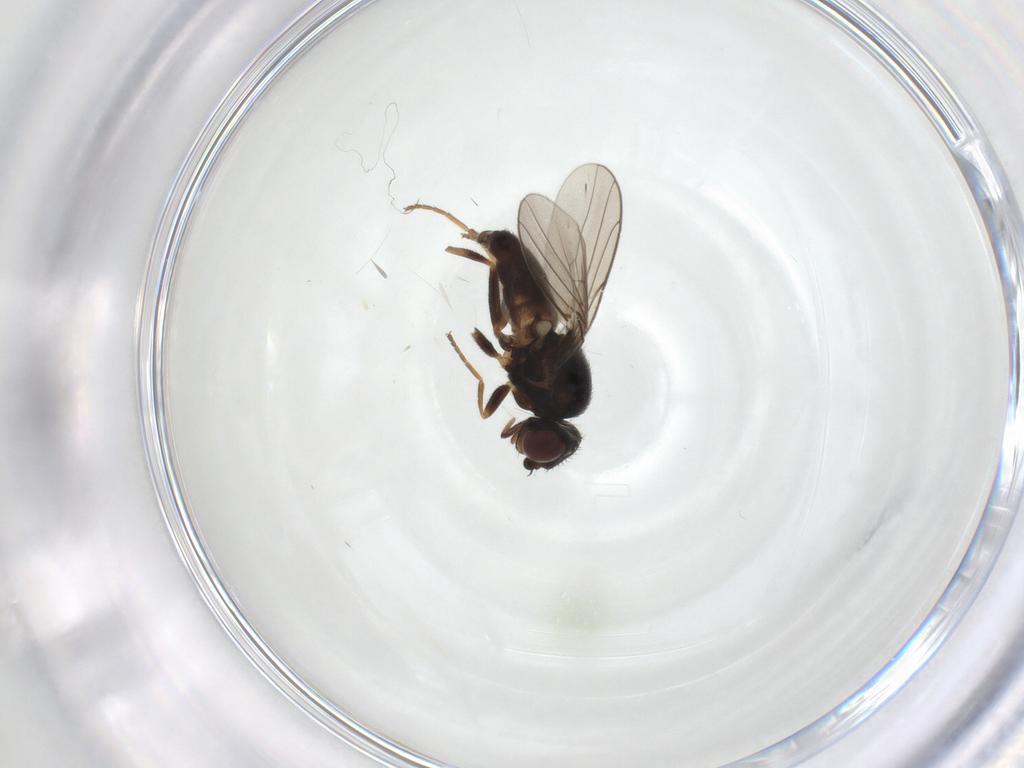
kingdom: Animalia
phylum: Arthropoda
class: Insecta
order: Diptera
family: Chloropidae
